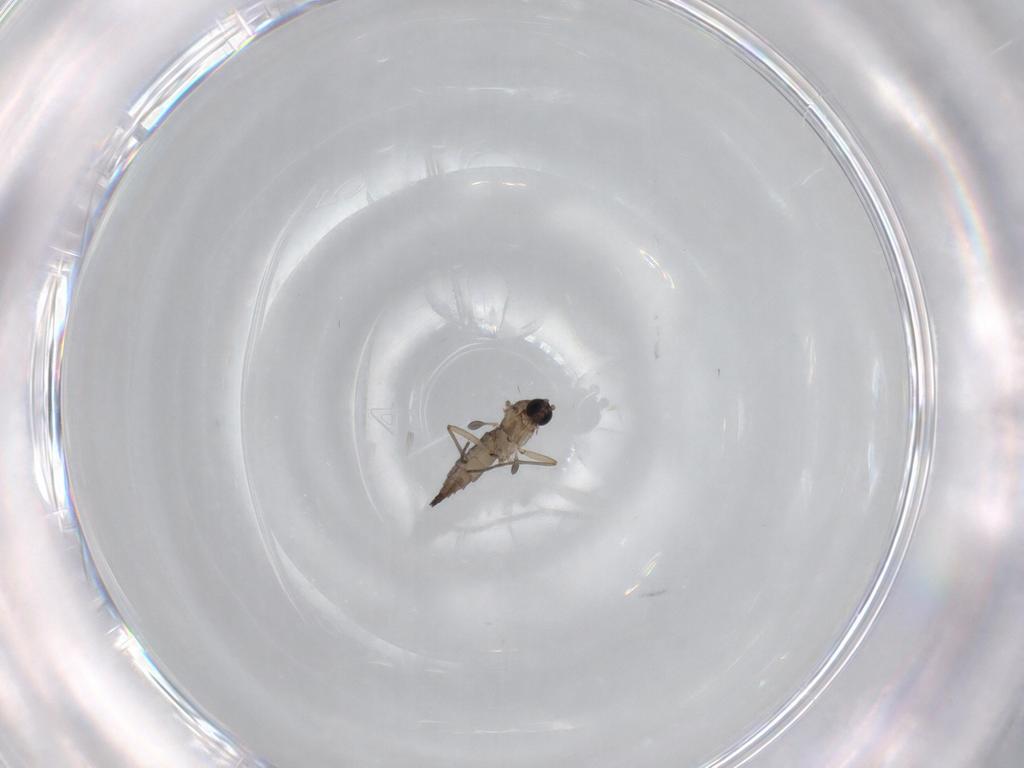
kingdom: Animalia
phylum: Arthropoda
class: Insecta
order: Diptera
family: Sciaridae
